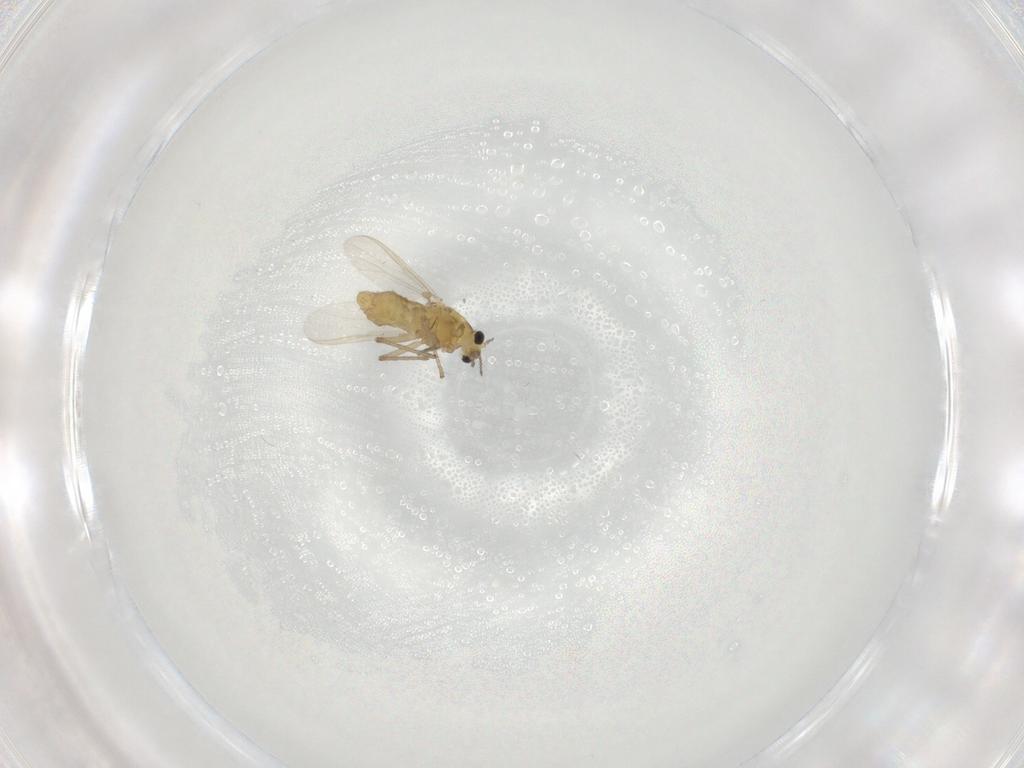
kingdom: Animalia
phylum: Arthropoda
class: Insecta
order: Diptera
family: Chironomidae
